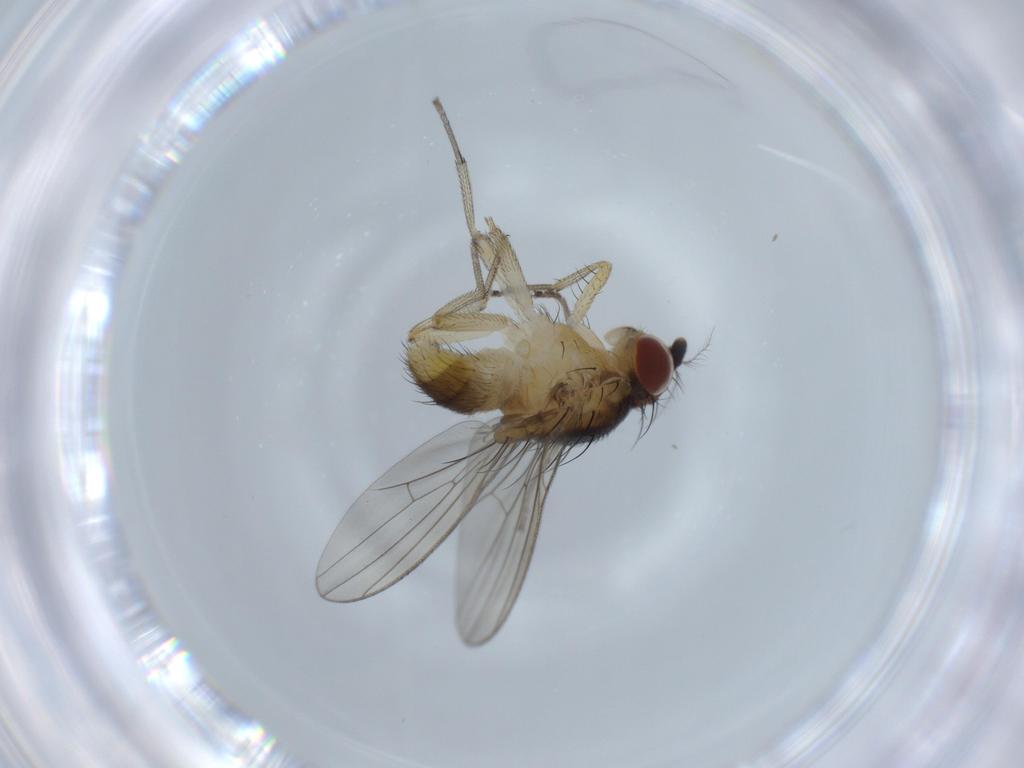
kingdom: Animalia
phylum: Arthropoda
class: Insecta
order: Diptera
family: Sciaridae
